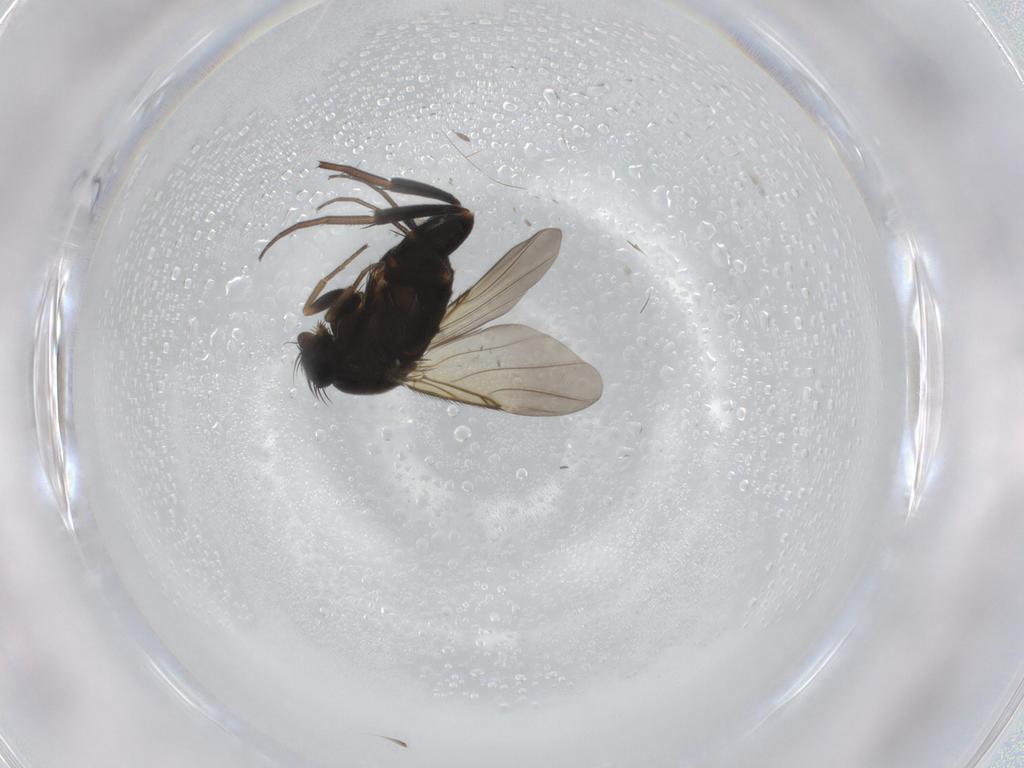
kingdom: Animalia
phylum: Arthropoda
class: Insecta
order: Diptera
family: Phoridae
